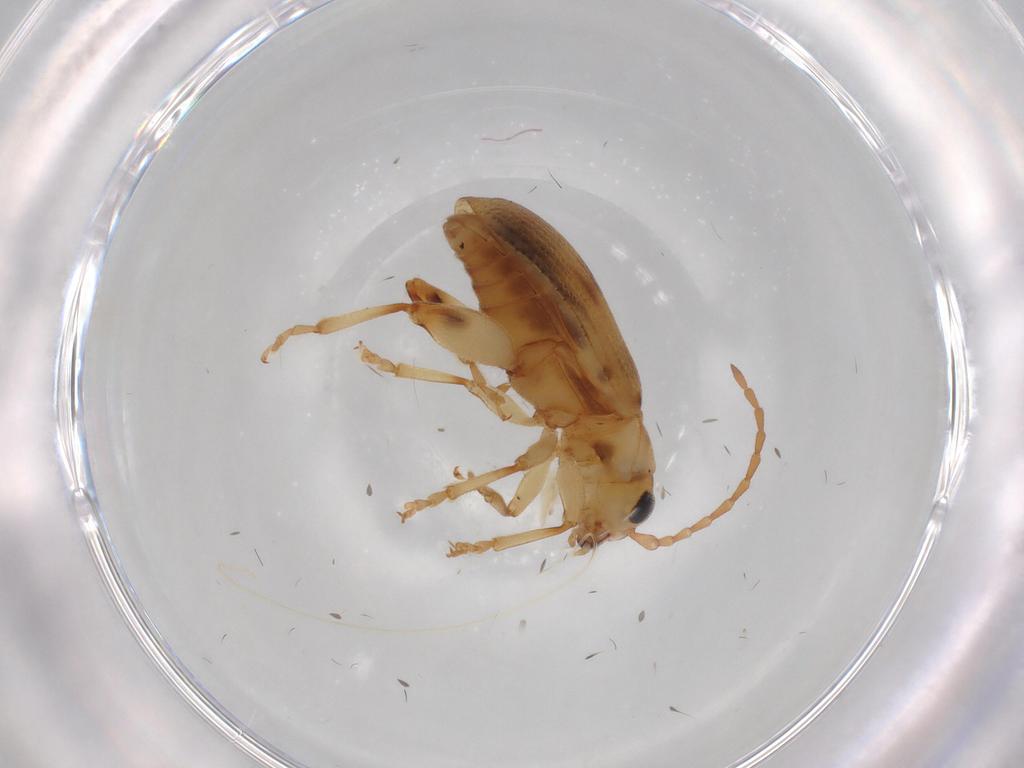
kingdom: Animalia
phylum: Arthropoda
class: Insecta
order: Coleoptera
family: Chrysomelidae
